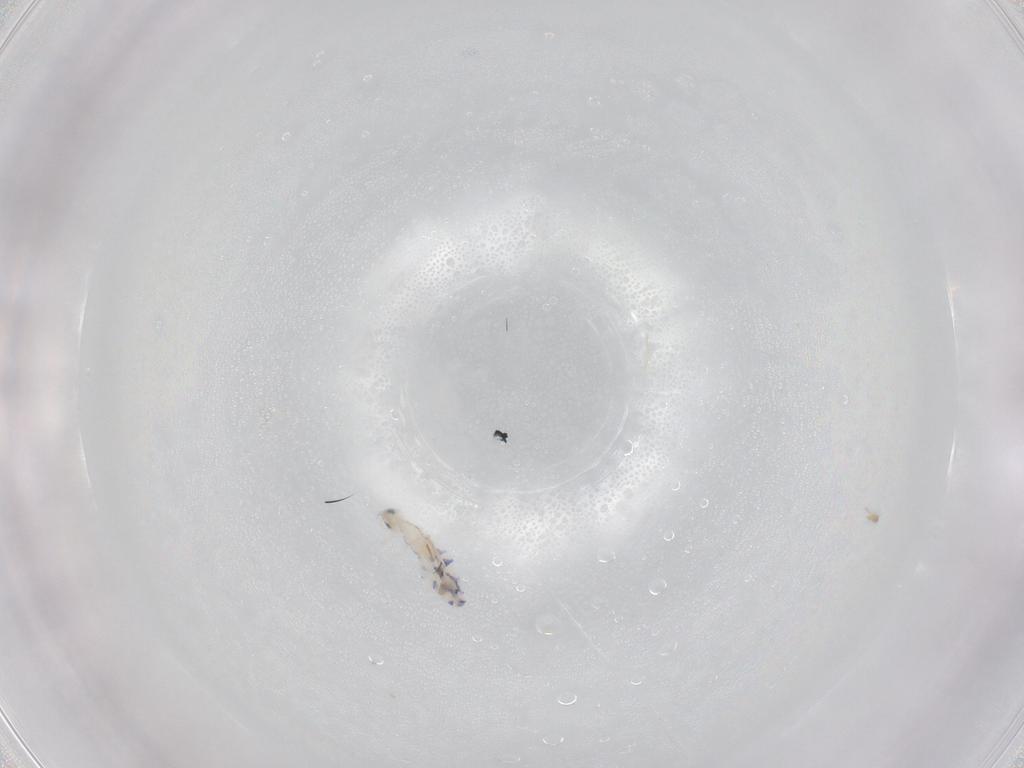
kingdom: Animalia
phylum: Arthropoda
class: Collembola
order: Entomobryomorpha
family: Entomobryidae
